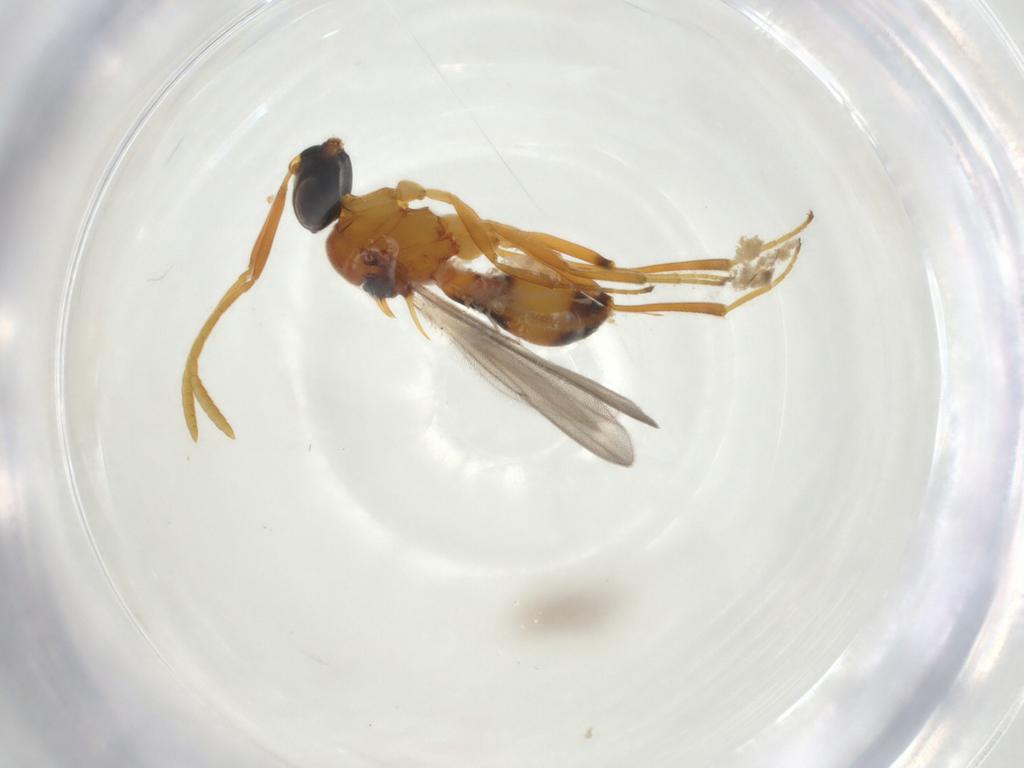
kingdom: Animalia
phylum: Arthropoda
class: Insecta
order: Hymenoptera
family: Scelionidae
